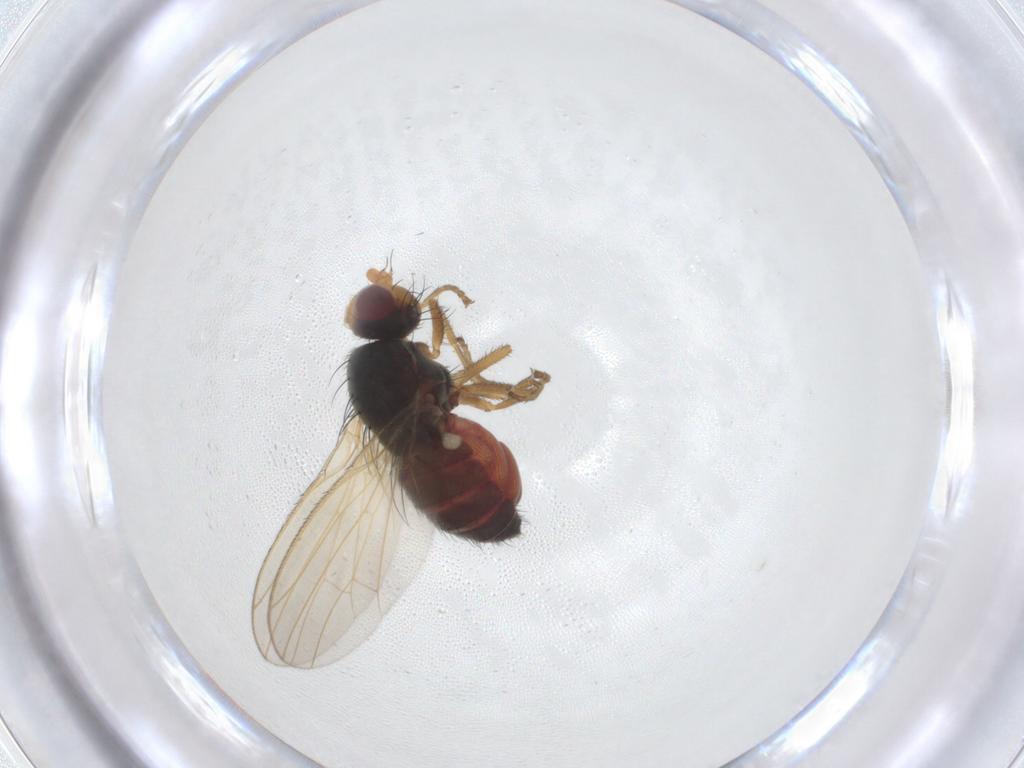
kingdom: Animalia
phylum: Arthropoda
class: Insecta
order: Diptera
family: Heleomyzidae
